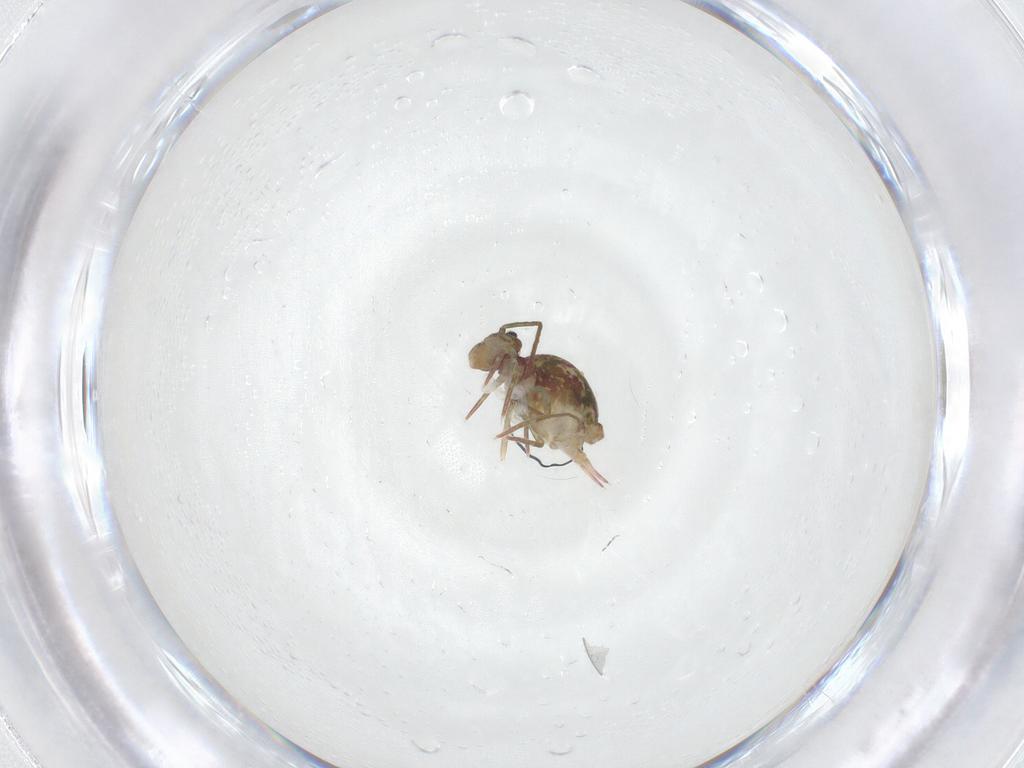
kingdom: Animalia
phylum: Arthropoda
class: Collembola
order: Symphypleona
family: Dicyrtomidae
